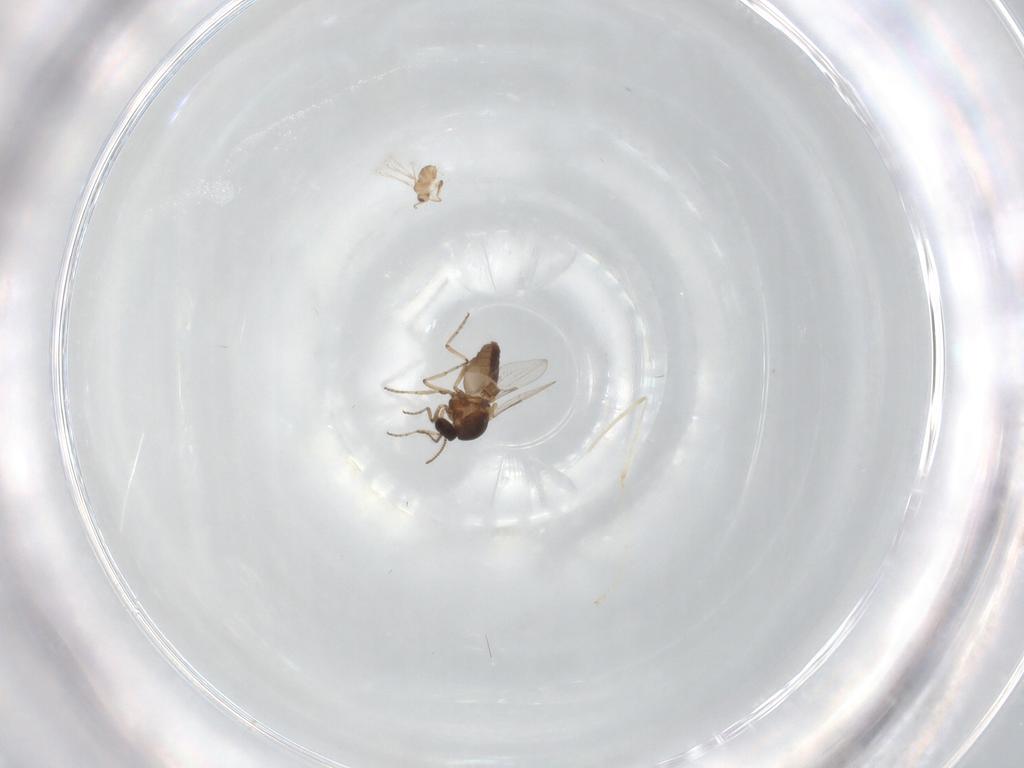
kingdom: Animalia
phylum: Arthropoda
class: Insecta
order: Diptera
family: Ceratopogonidae
